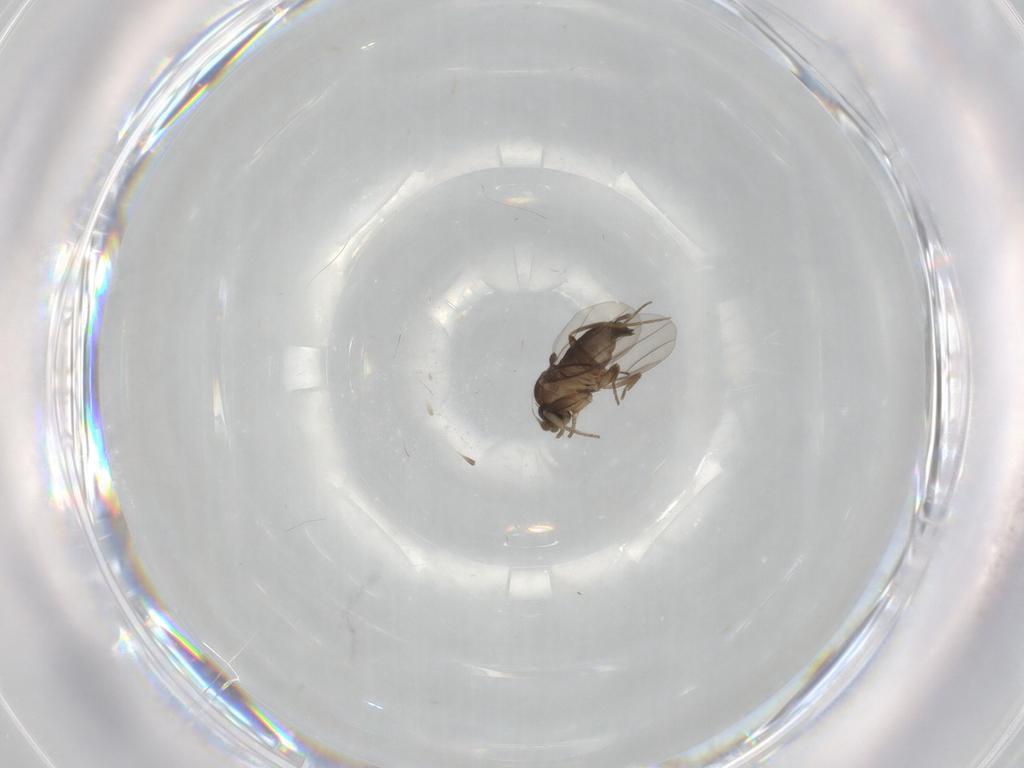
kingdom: Animalia
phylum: Arthropoda
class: Insecta
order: Diptera
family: Phoridae
